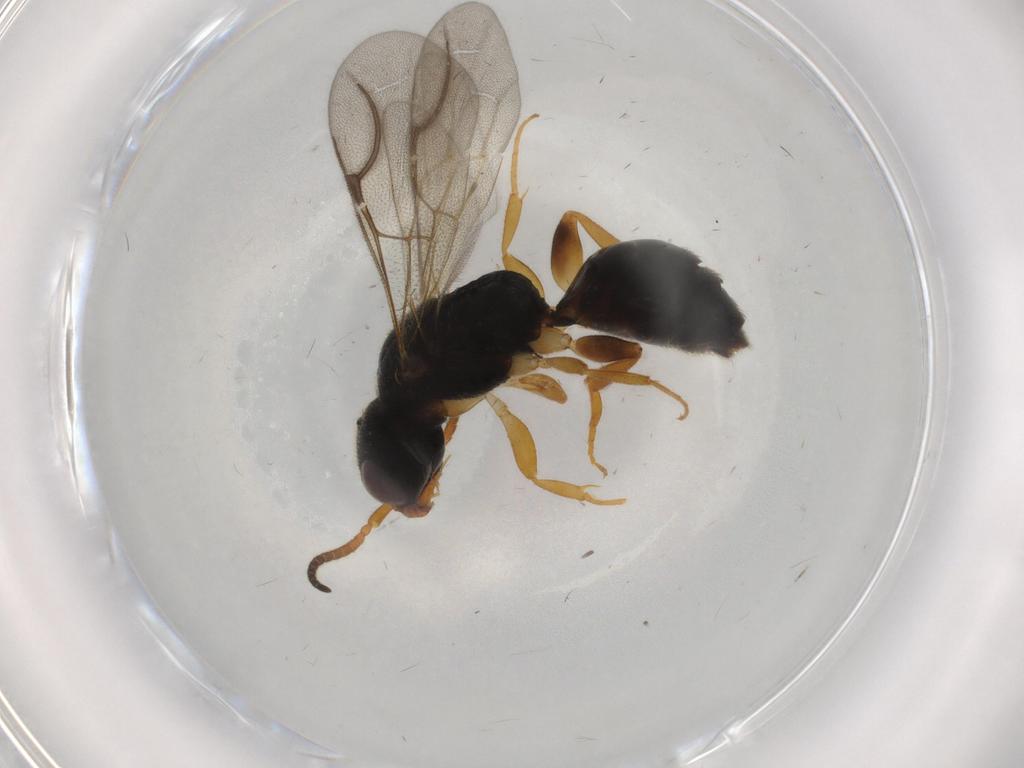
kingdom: Animalia
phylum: Arthropoda
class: Insecta
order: Hymenoptera
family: Bethylidae
